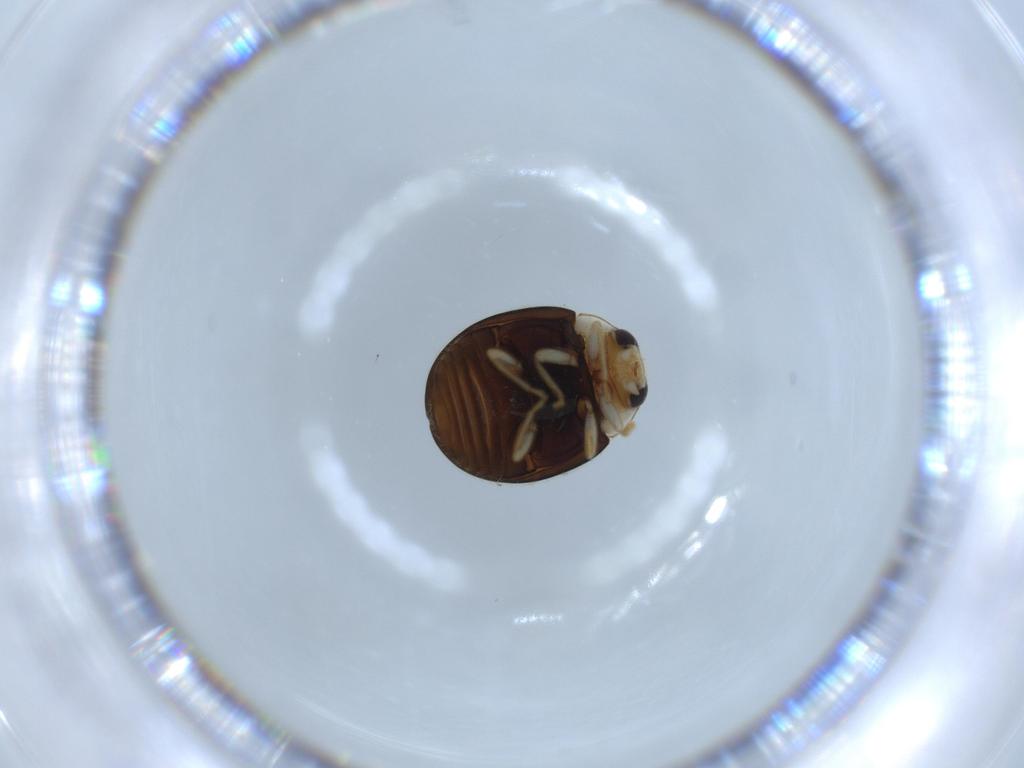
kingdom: Animalia
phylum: Arthropoda
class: Insecta
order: Coleoptera
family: Coccinellidae
